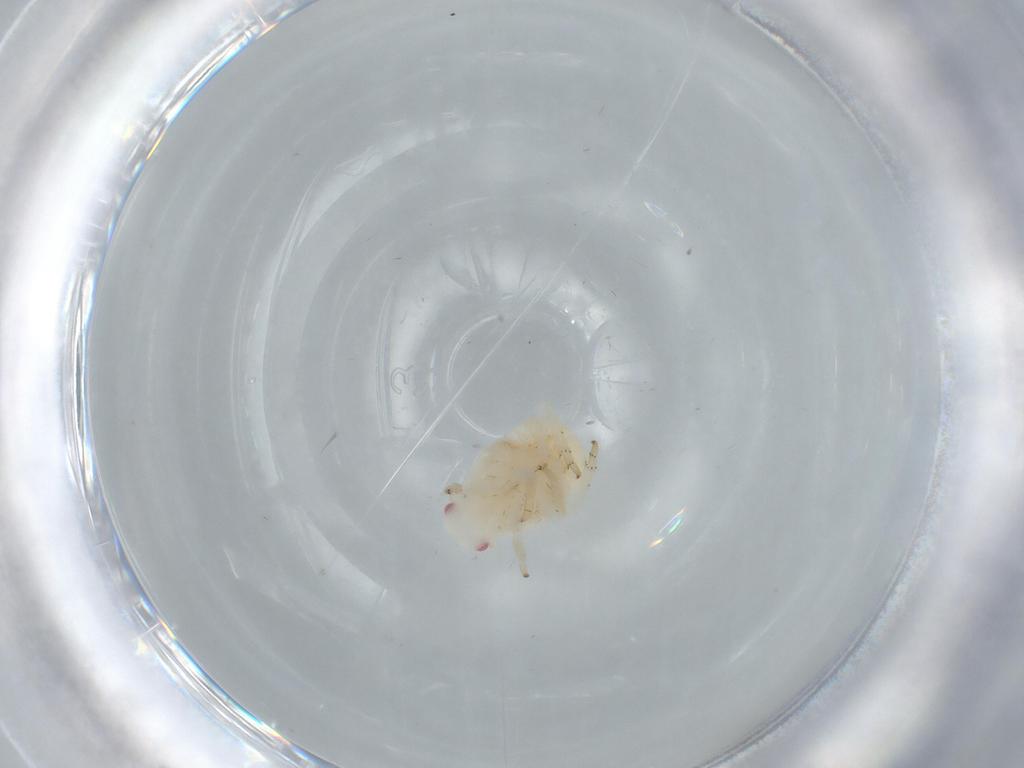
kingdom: Animalia
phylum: Arthropoda
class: Insecta
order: Hemiptera
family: Flatidae
